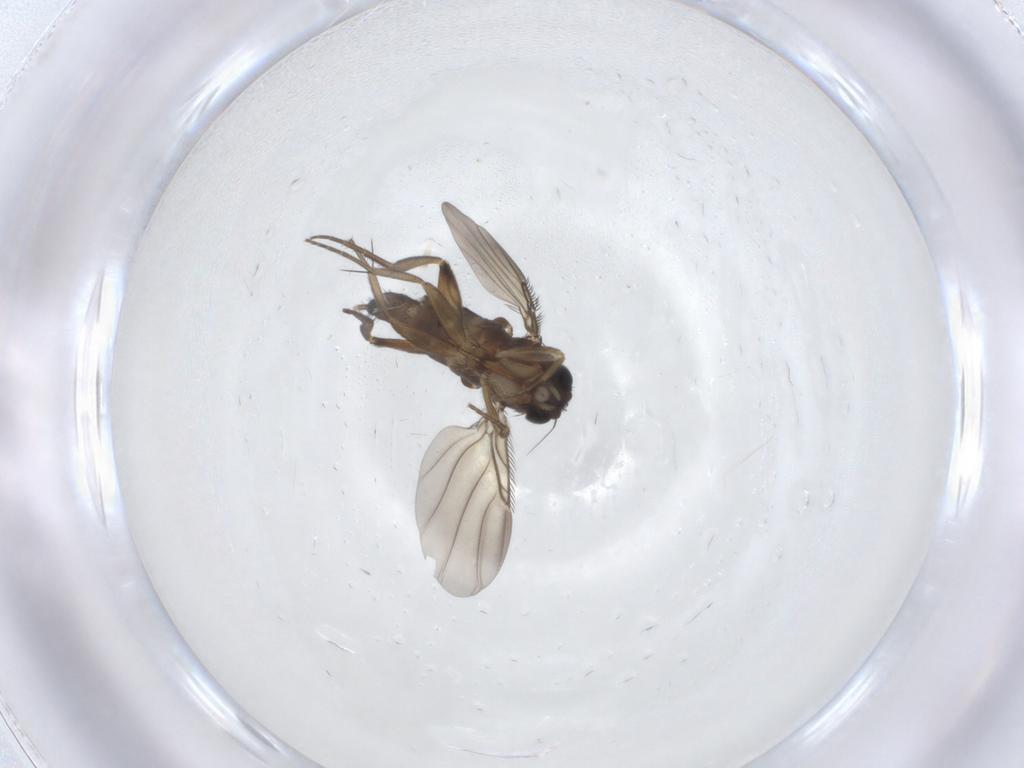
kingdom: Animalia
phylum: Arthropoda
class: Insecta
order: Diptera
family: Phoridae
